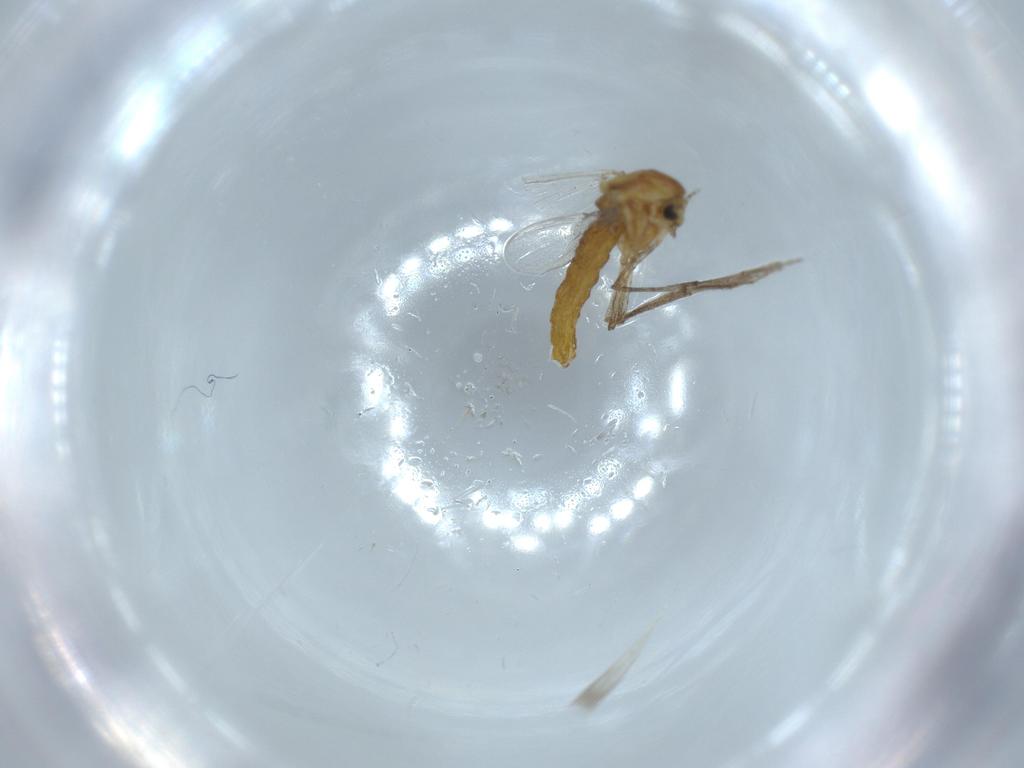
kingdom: Animalia
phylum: Arthropoda
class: Insecta
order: Diptera
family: Chironomidae
